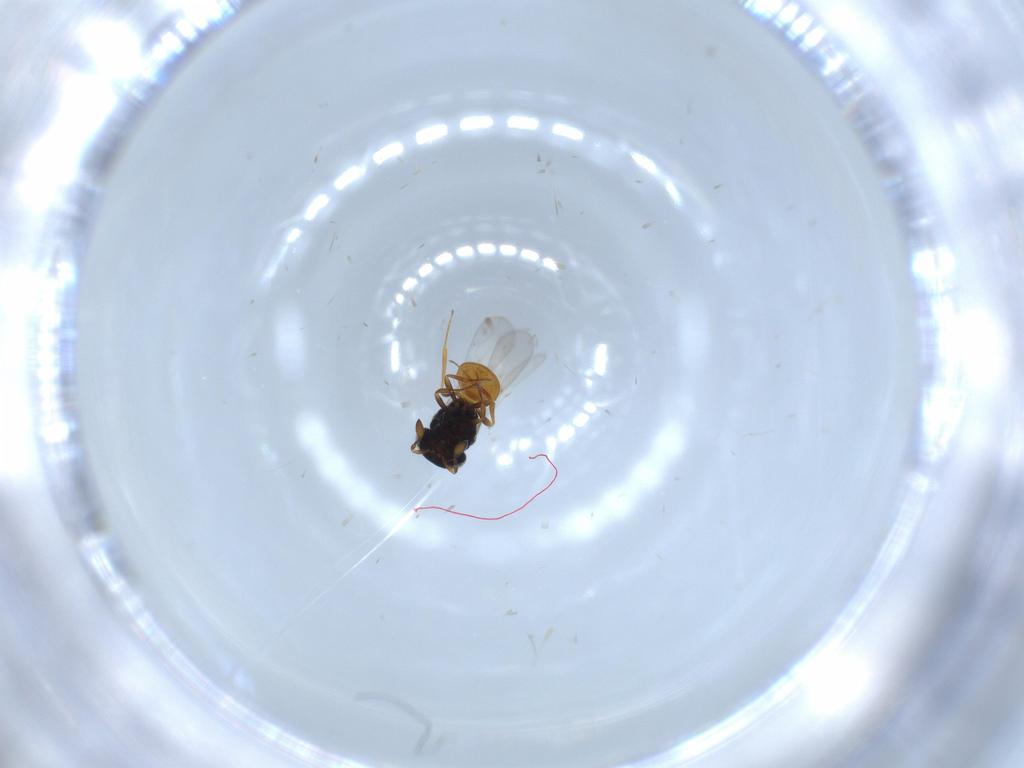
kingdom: Animalia
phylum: Arthropoda
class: Insecta
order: Hymenoptera
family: Scelionidae
